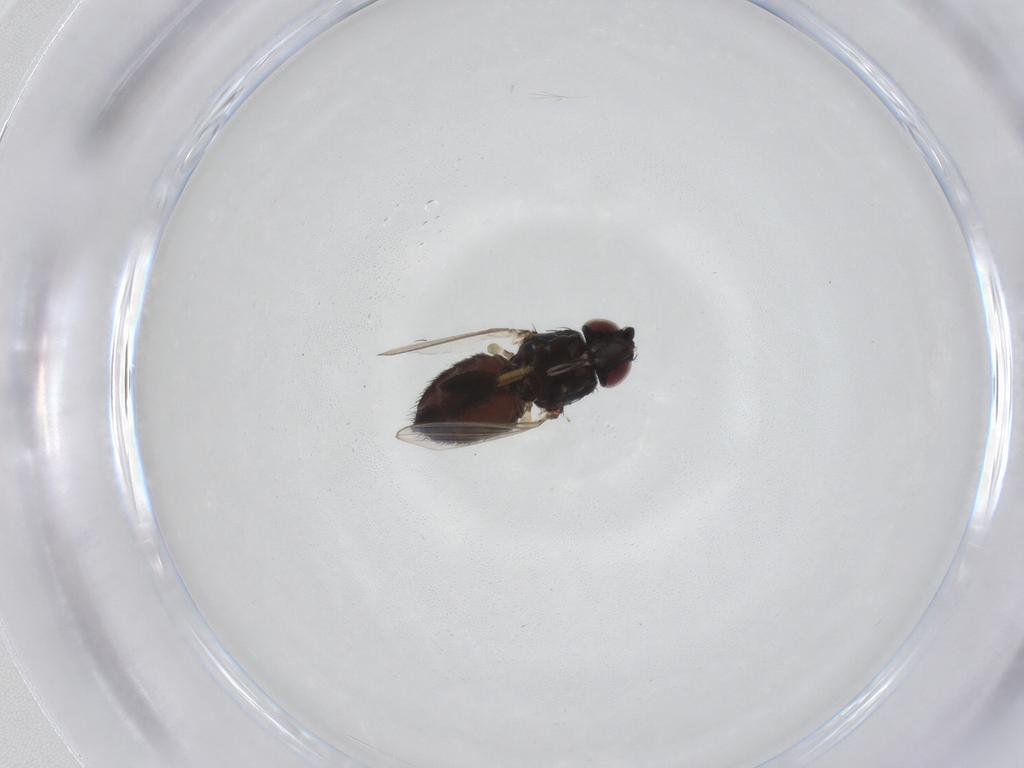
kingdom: Animalia
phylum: Arthropoda
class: Insecta
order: Diptera
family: Milichiidae
